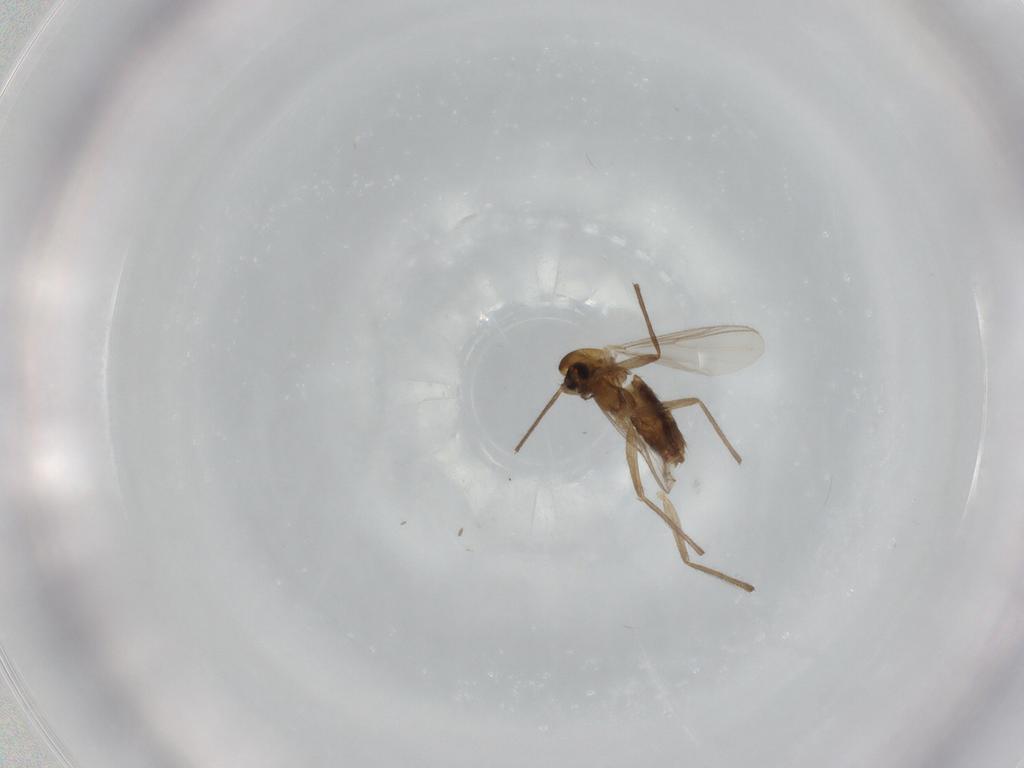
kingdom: Animalia
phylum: Arthropoda
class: Insecta
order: Diptera
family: Chironomidae
